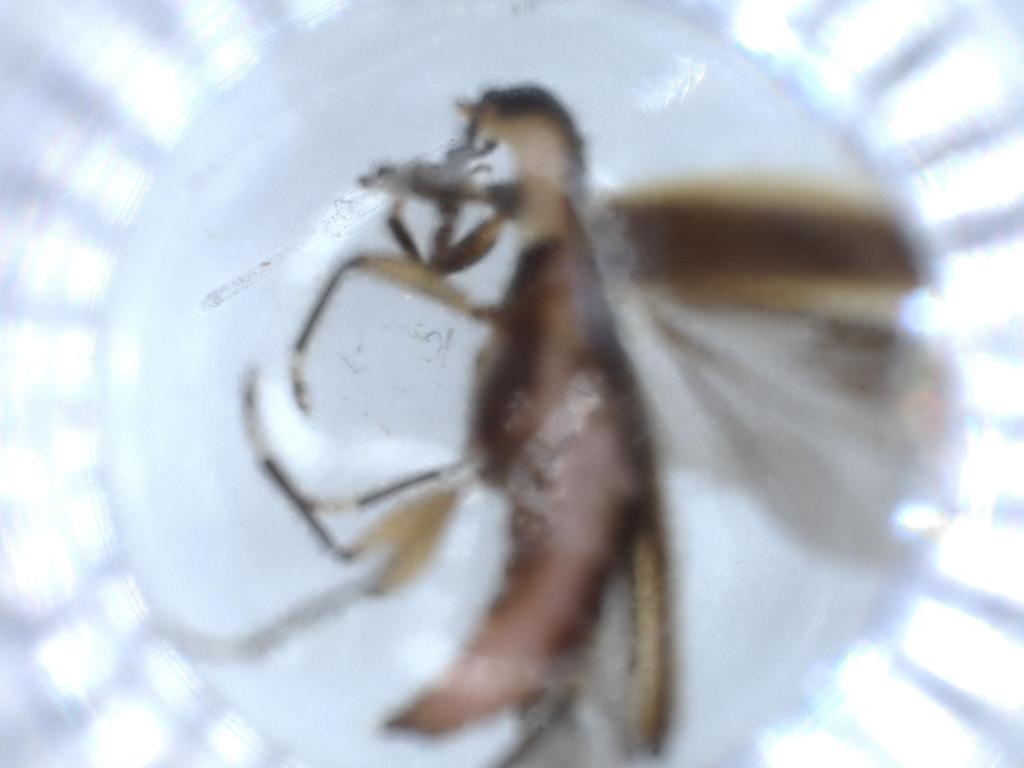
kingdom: Animalia
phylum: Arthropoda
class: Insecta
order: Coleoptera
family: Cleridae
